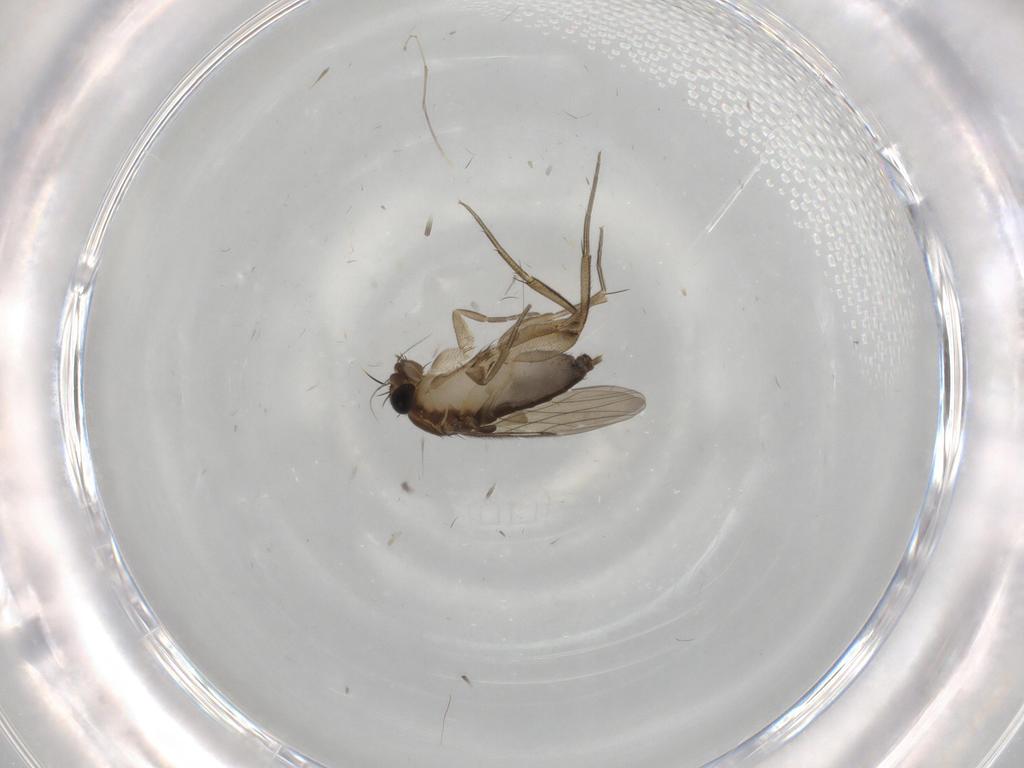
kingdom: Animalia
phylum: Arthropoda
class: Insecta
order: Diptera
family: Phoridae
